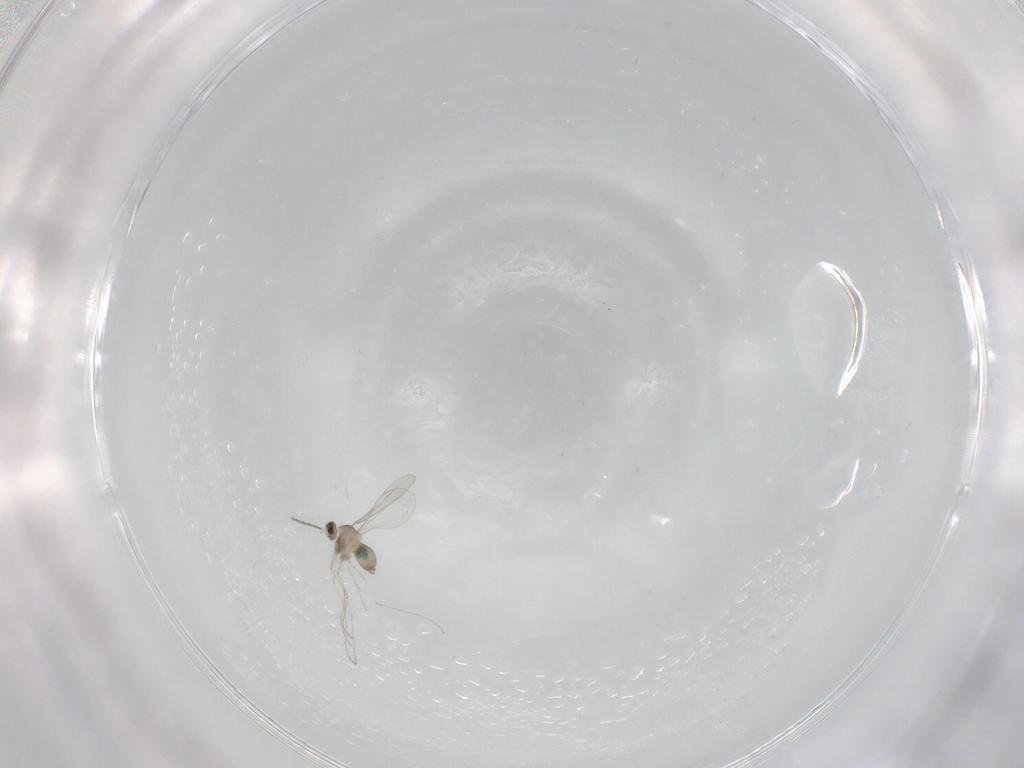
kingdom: Animalia
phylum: Arthropoda
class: Insecta
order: Diptera
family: Cecidomyiidae
